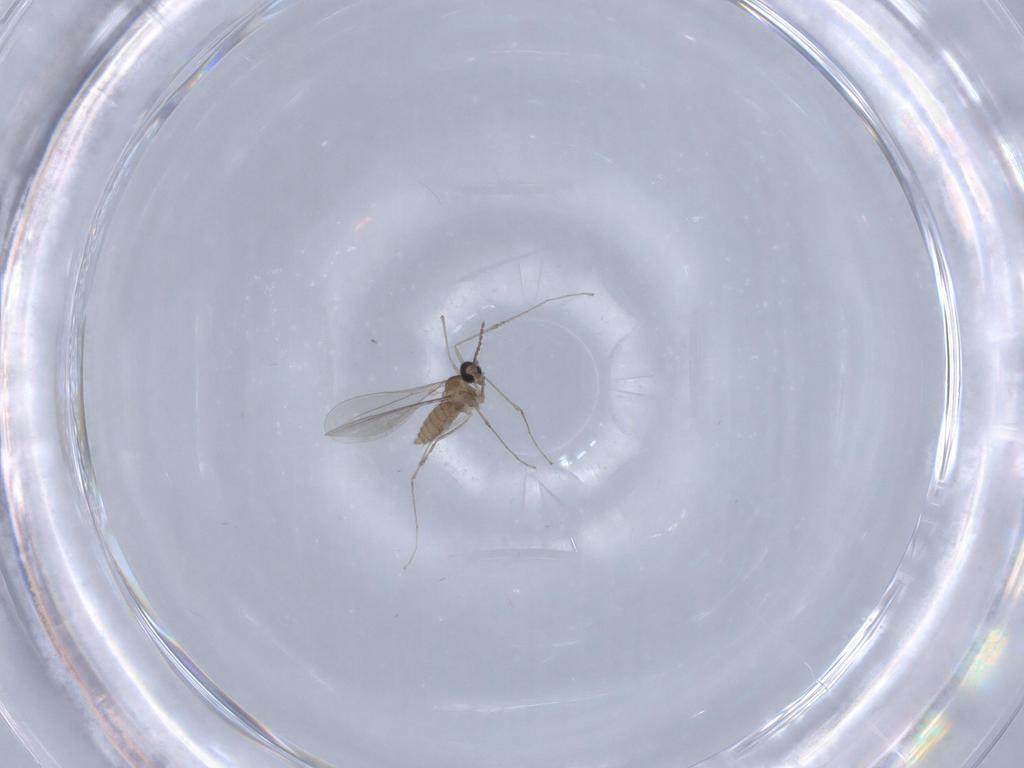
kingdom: Animalia
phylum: Arthropoda
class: Insecta
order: Diptera
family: Cecidomyiidae
